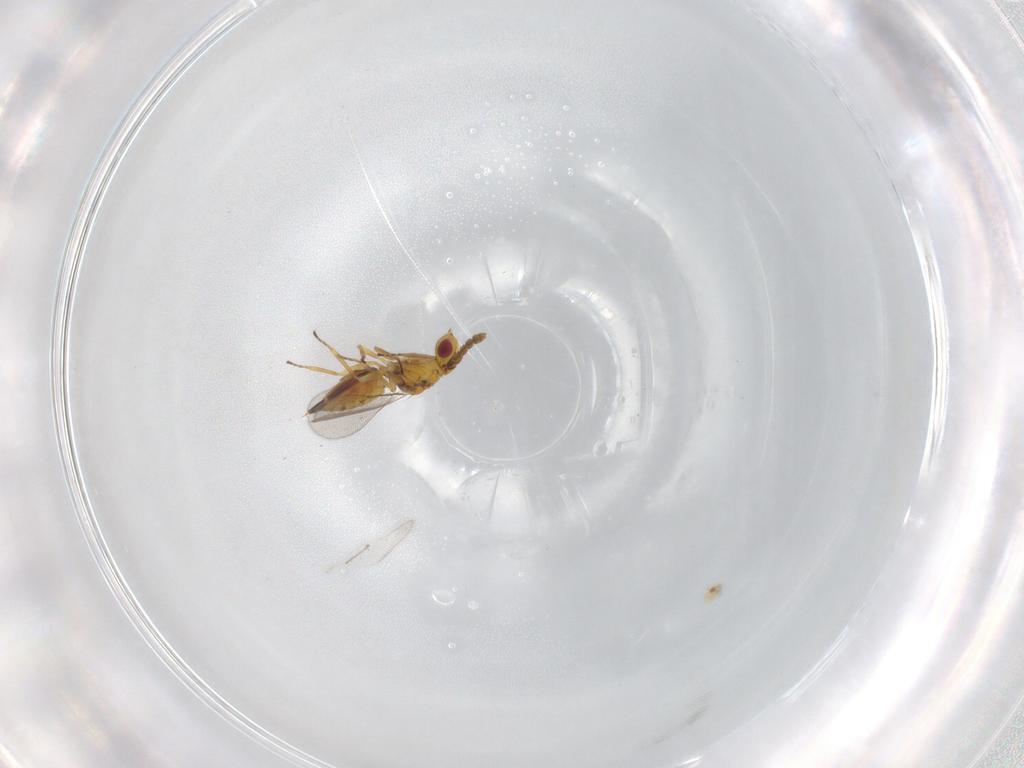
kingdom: Animalia
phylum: Arthropoda
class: Insecta
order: Hymenoptera
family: Eulophidae
